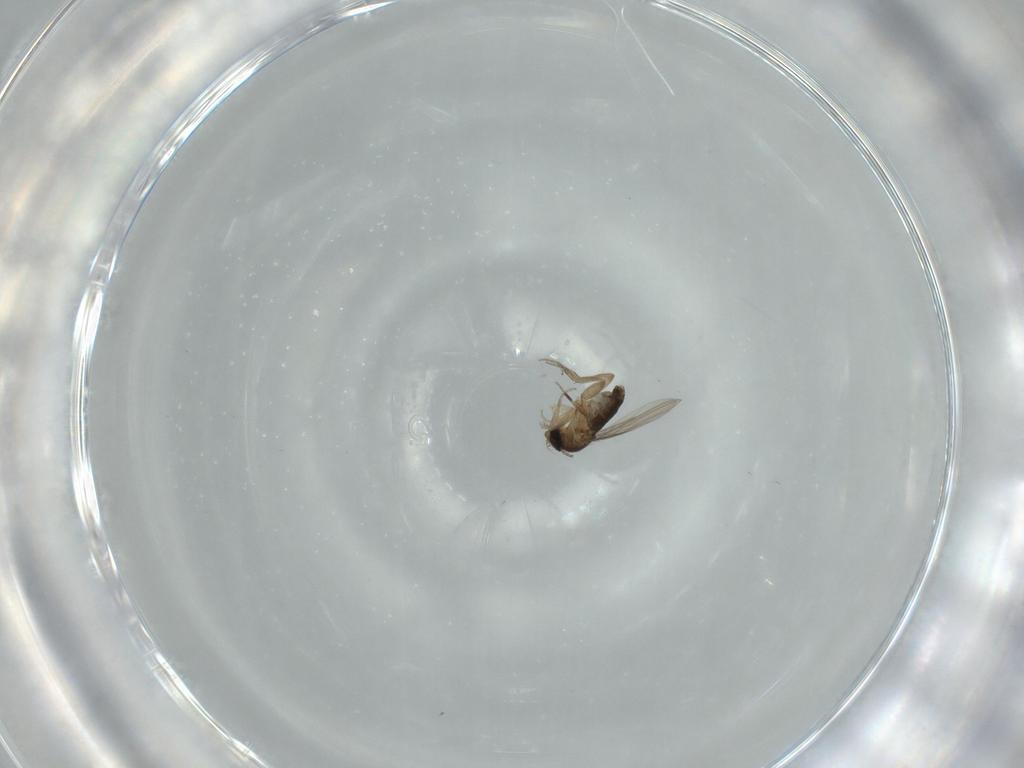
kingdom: Animalia
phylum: Arthropoda
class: Insecta
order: Diptera
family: Phoridae
